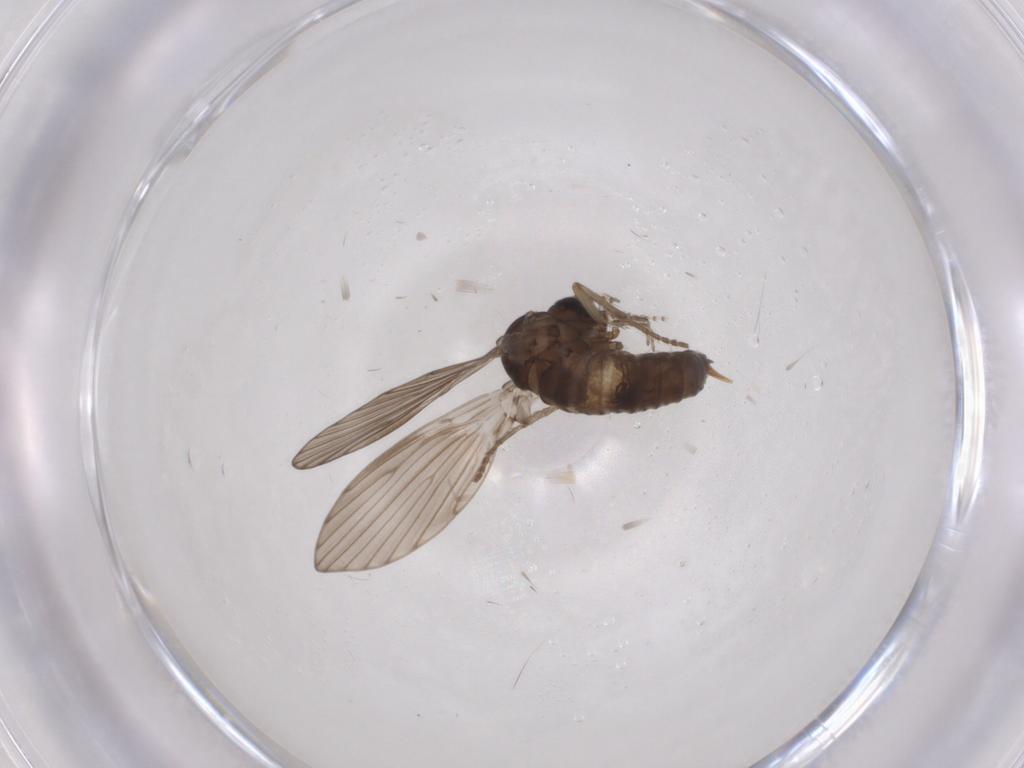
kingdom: Animalia
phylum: Arthropoda
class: Insecta
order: Diptera
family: Psychodidae
